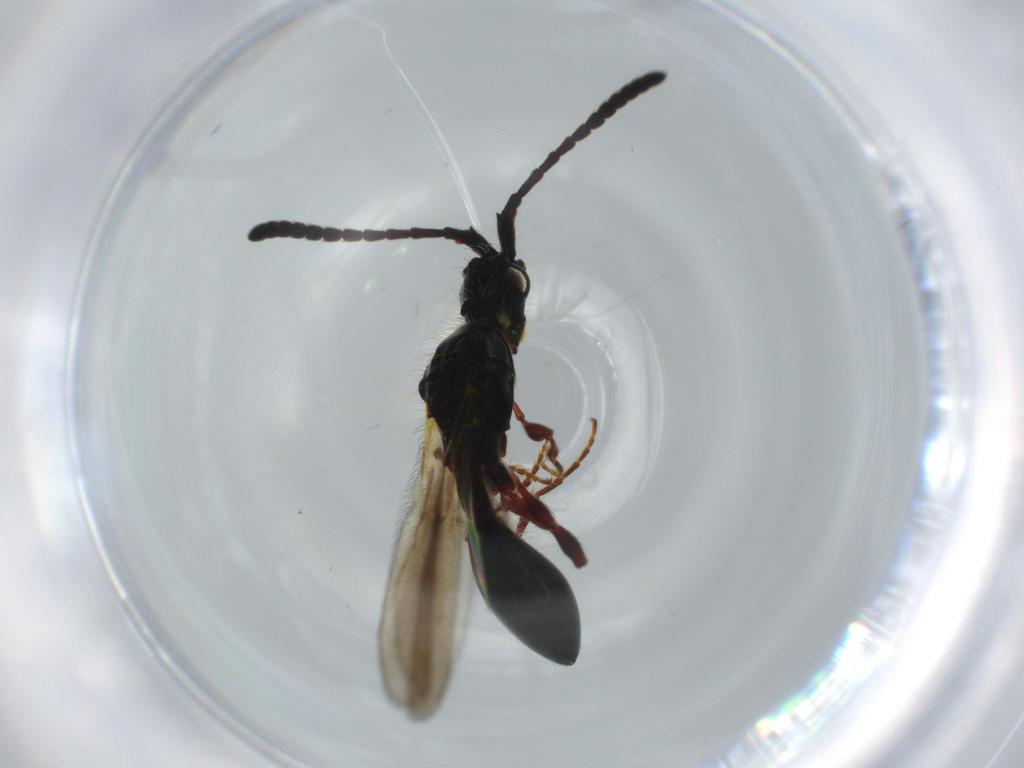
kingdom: Animalia
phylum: Arthropoda
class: Insecta
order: Hymenoptera
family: Diapriidae
